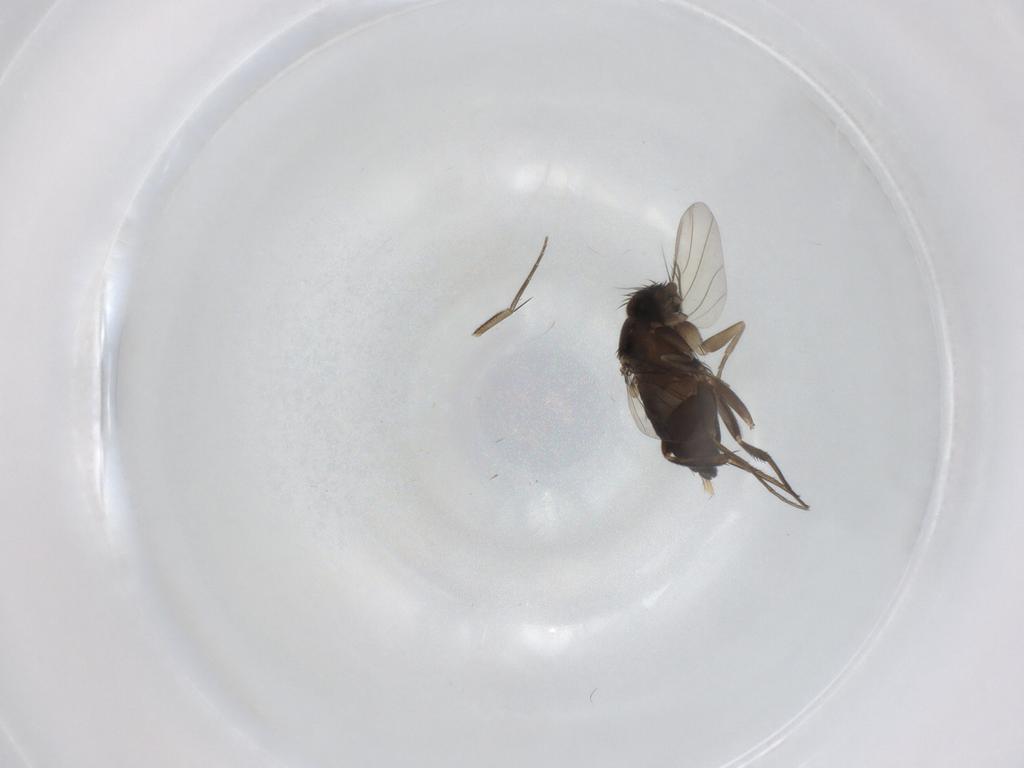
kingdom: Animalia
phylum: Arthropoda
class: Insecta
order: Diptera
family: Phoridae
